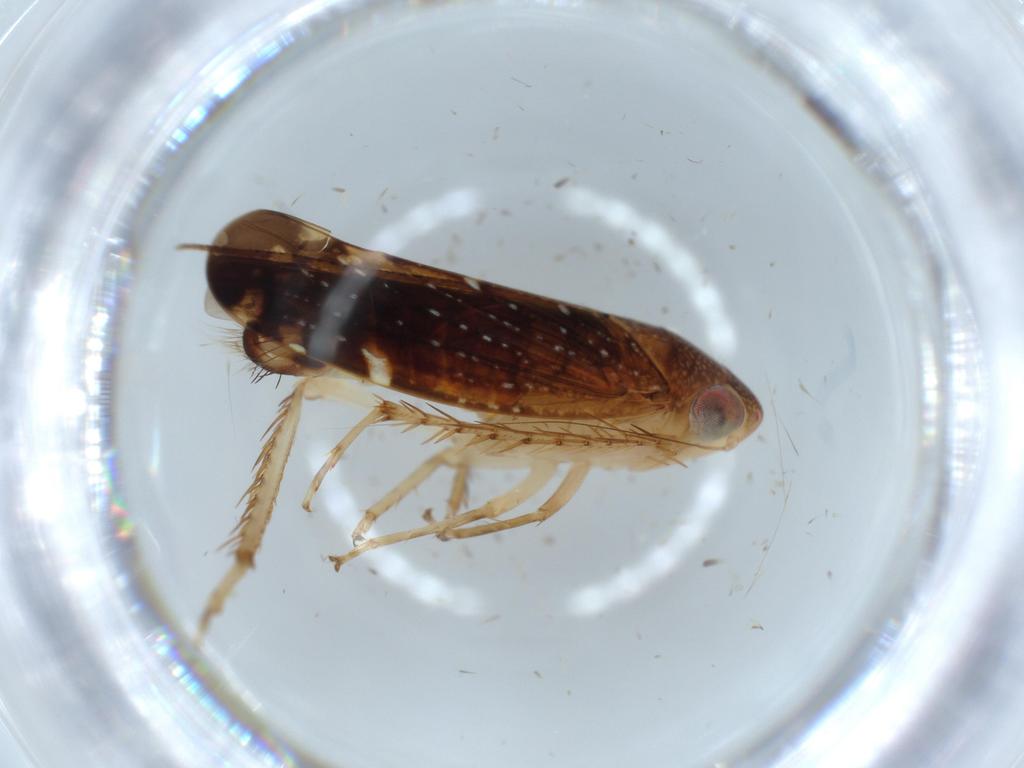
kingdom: Animalia
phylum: Arthropoda
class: Insecta
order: Hemiptera
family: Cicadellidae
